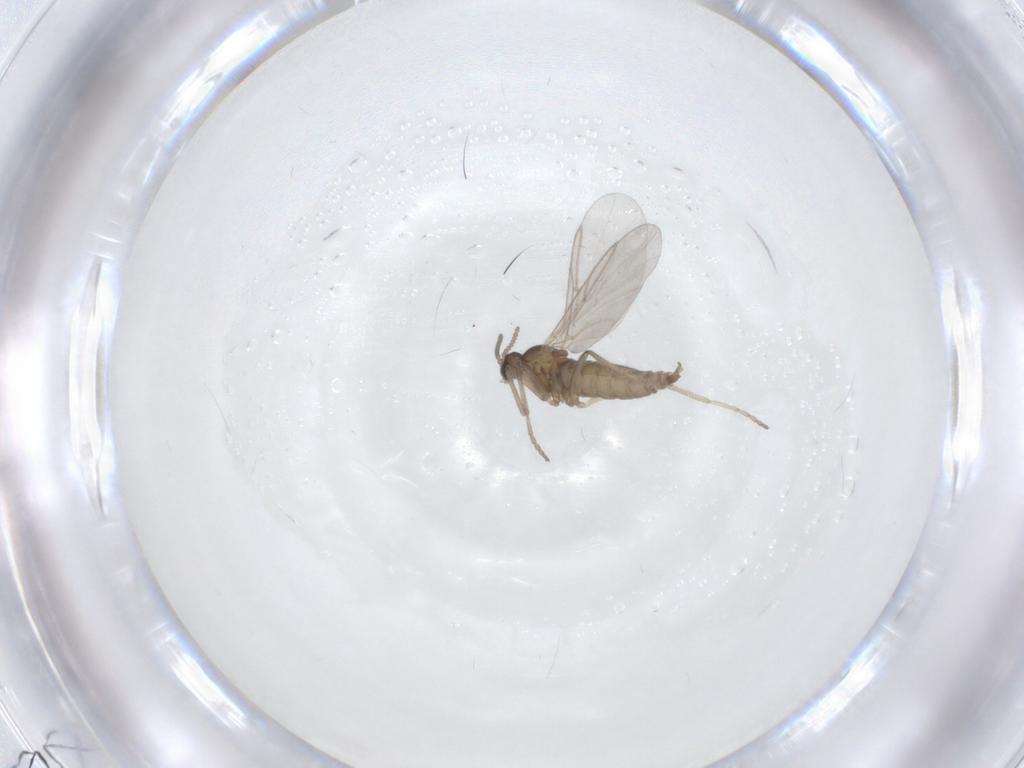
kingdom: Animalia
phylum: Arthropoda
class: Insecta
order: Diptera
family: Cecidomyiidae
